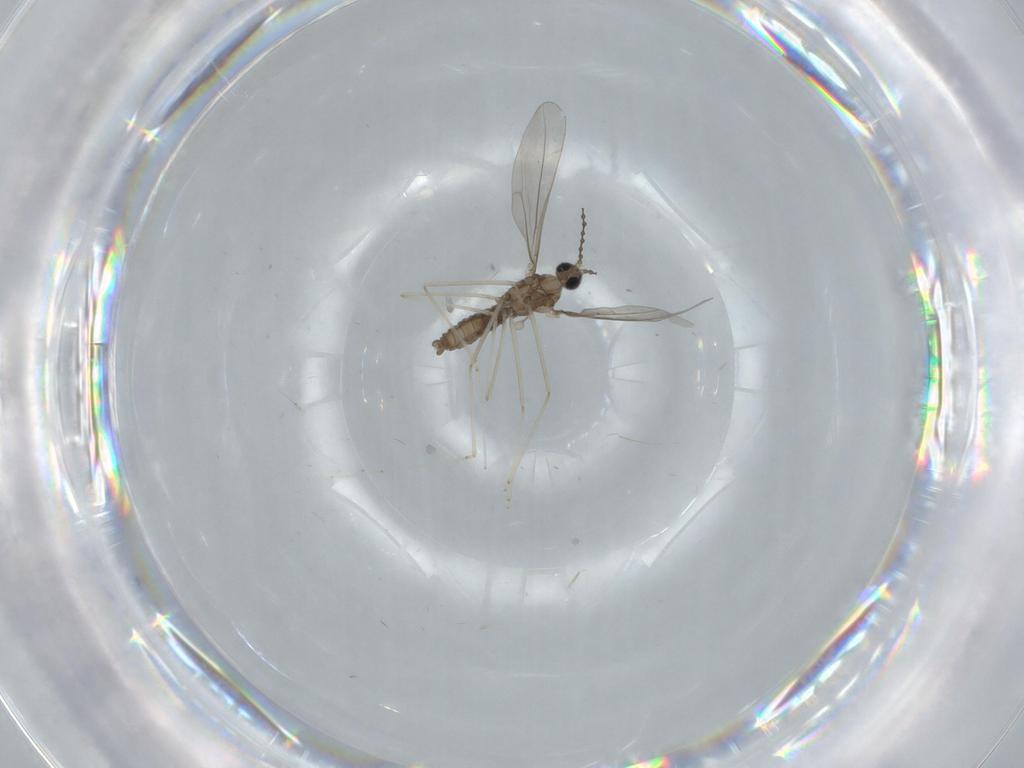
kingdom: Animalia
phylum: Arthropoda
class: Insecta
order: Diptera
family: Cecidomyiidae
